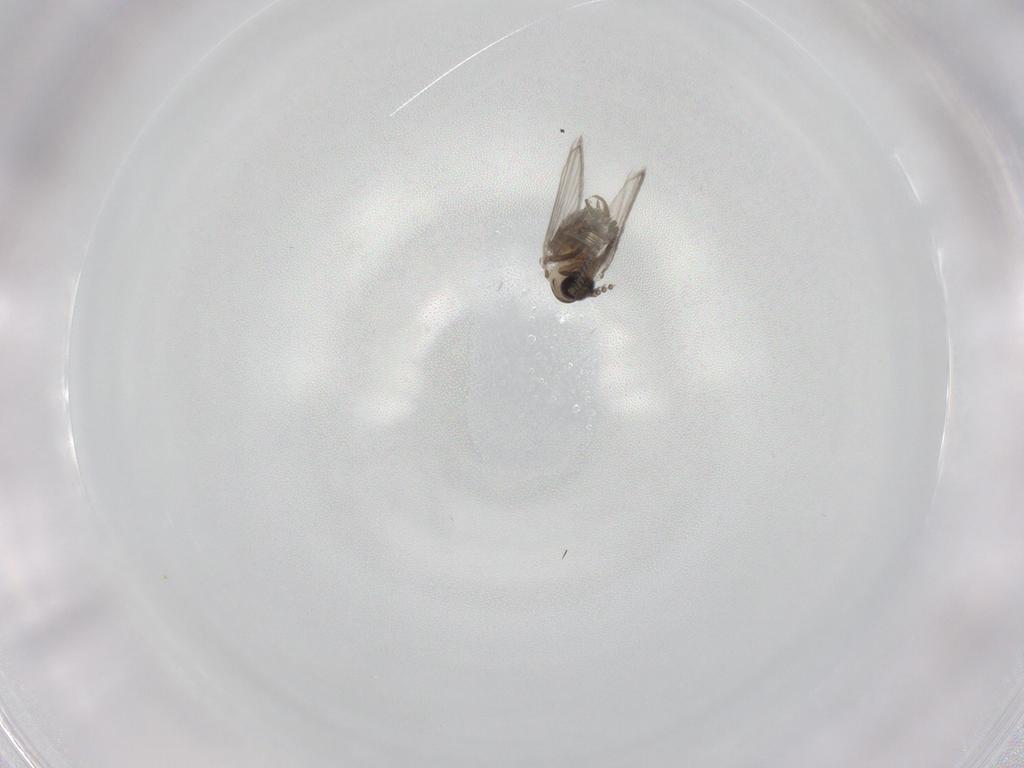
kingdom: Animalia
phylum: Arthropoda
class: Insecta
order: Diptera
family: Psychodidae
